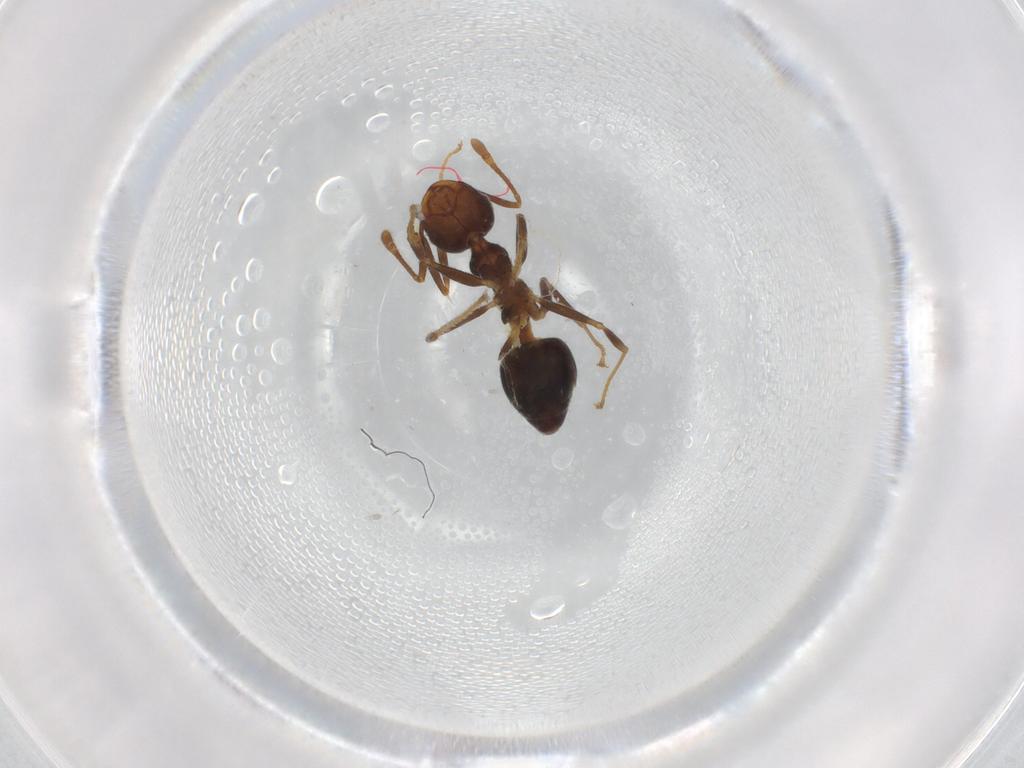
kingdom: Animalia
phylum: Arthropoda
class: Insecta
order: Hymenoptera
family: Formicidae
